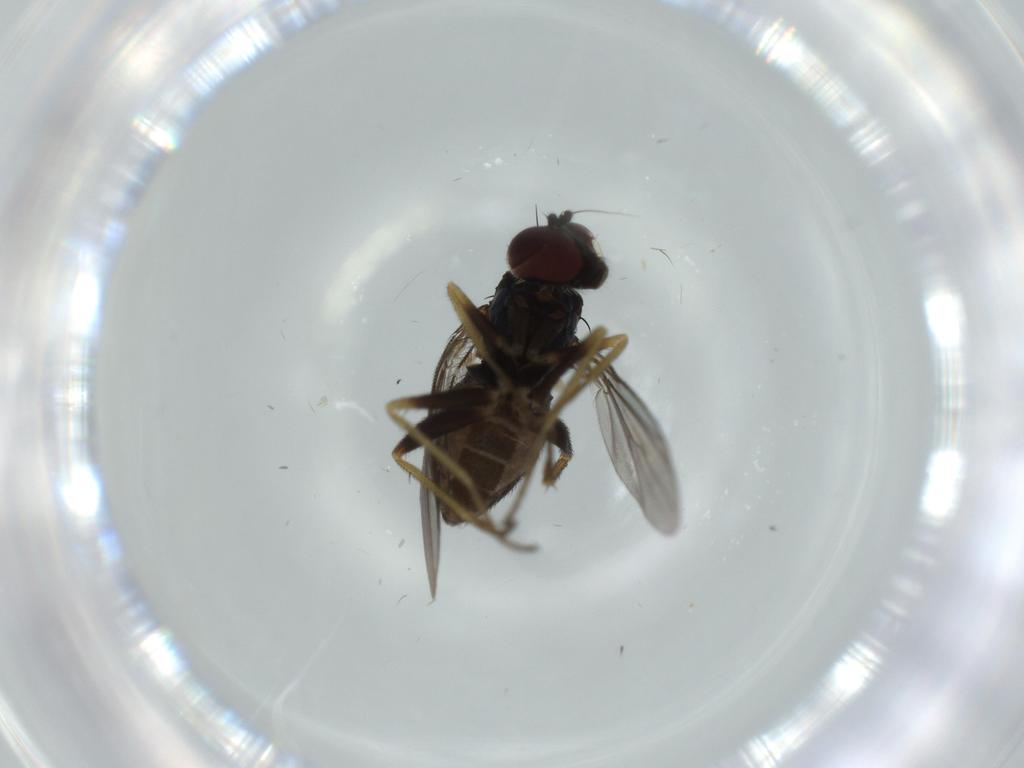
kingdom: Animalia
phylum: Arthropoda
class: Insecta
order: Diptera
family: Dolichopodidae
